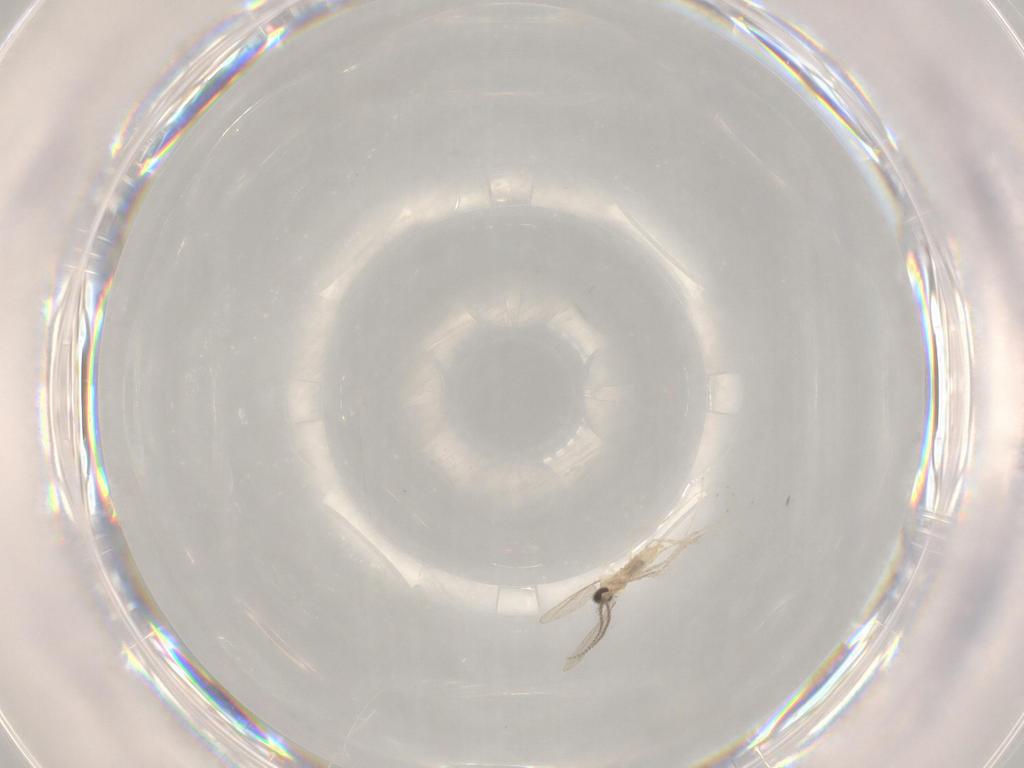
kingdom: Animalia
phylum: Arthropoda
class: Insecta
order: Diptera
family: Cecidomyiidae
